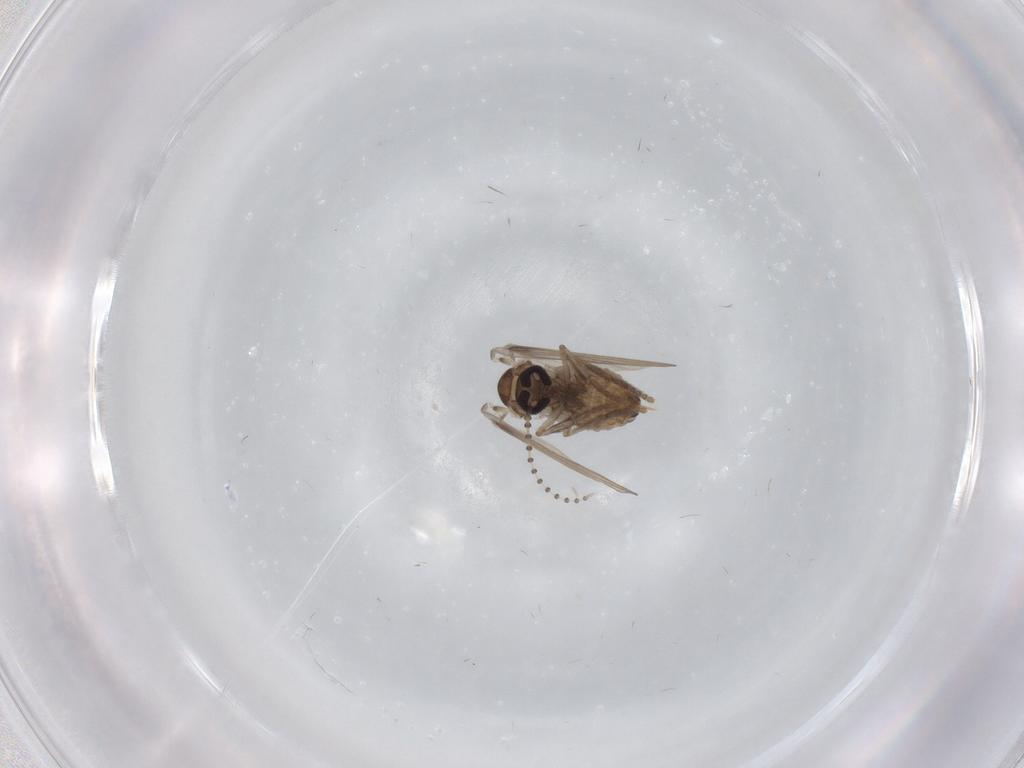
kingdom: Animalia
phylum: Arthropoda
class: Insecta
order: Diptera
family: Psychodidae
